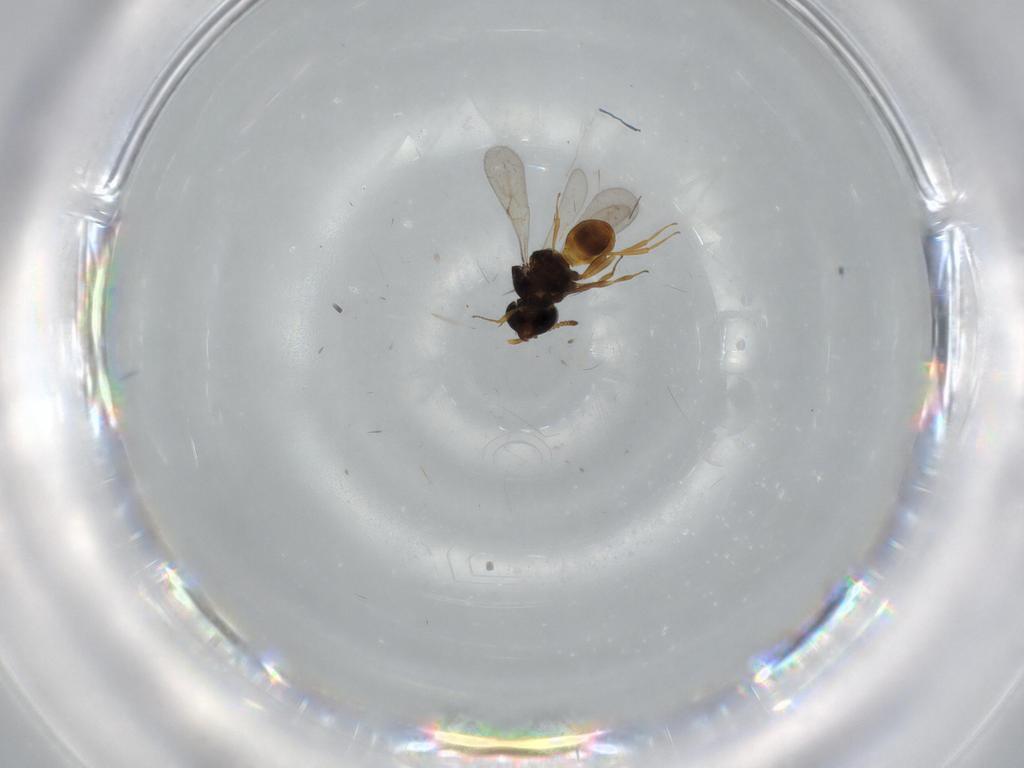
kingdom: Animalia
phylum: Arthropoda
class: Insecta
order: Hymenoptera
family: Scelionidae
